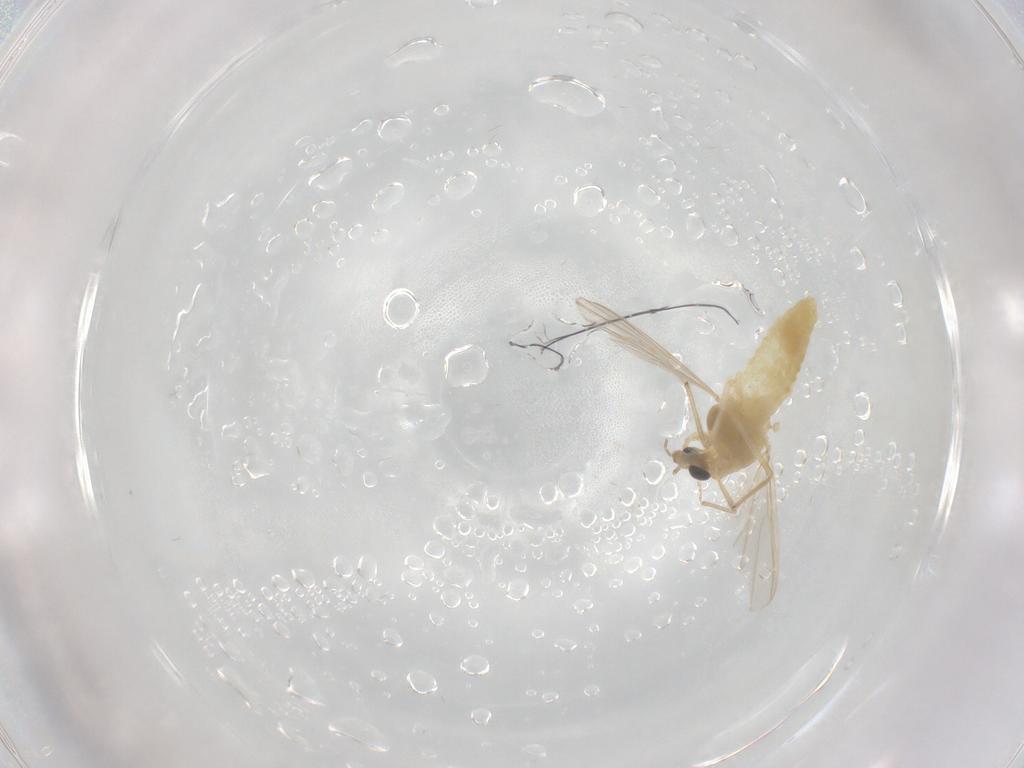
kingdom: Animalia
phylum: Arthropoda
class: Insecta
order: Diptera
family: Chironomidae
